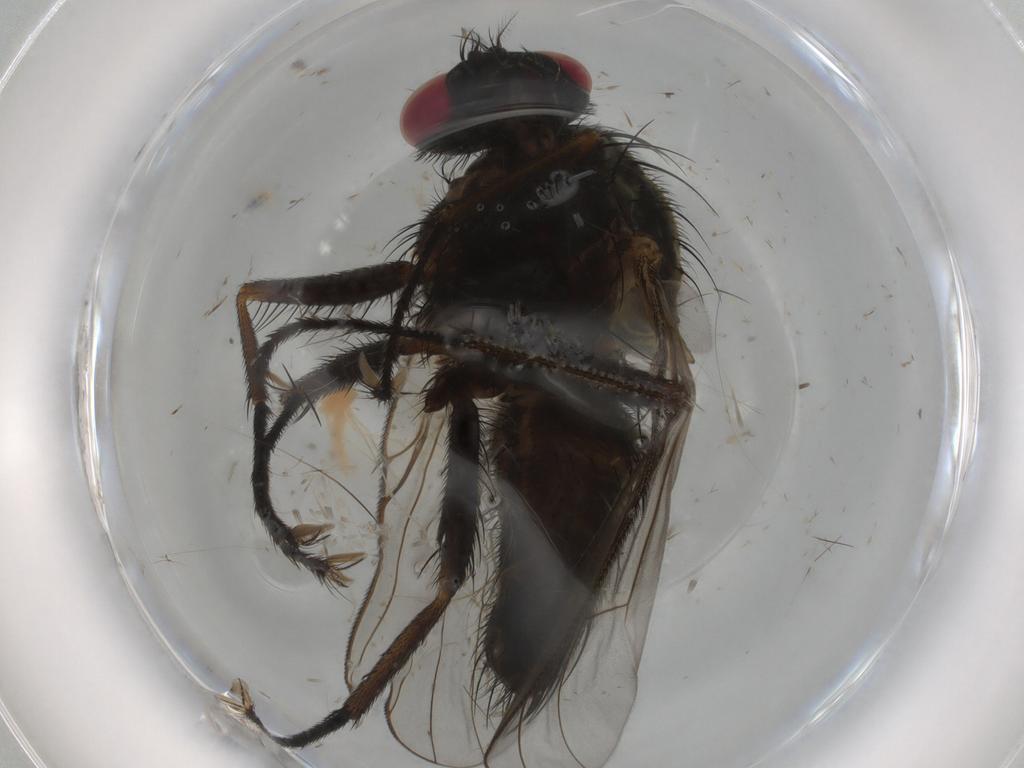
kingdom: Animalia
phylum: Arthropoda
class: Insecta
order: Diptera
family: Muscidae
